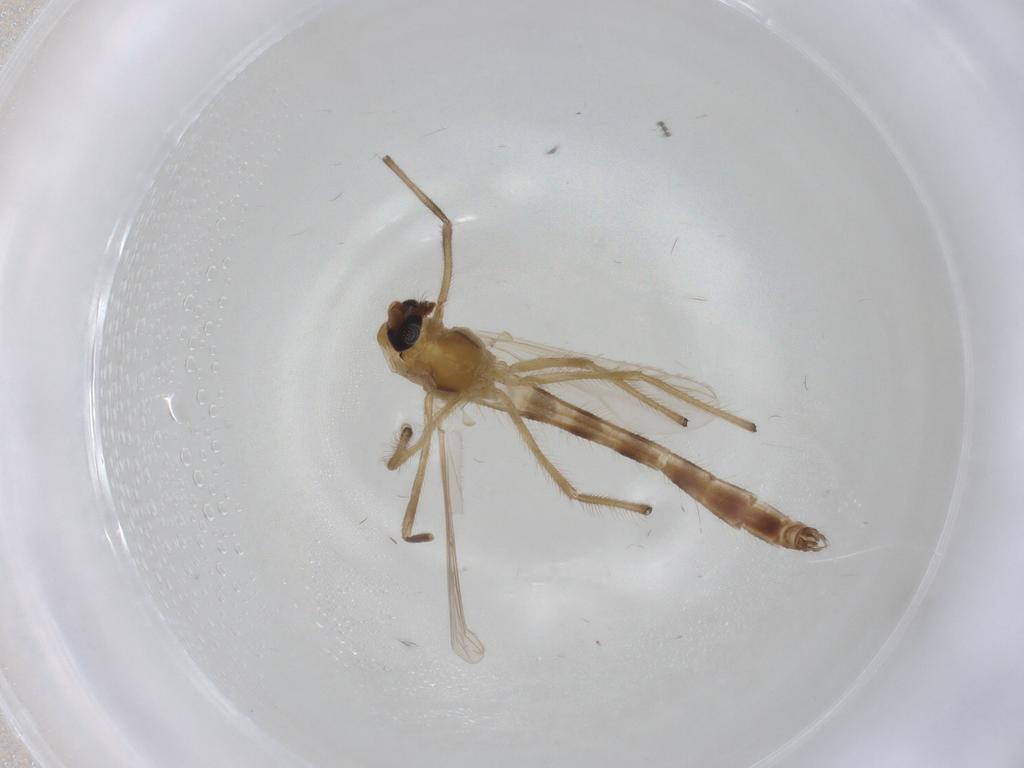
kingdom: Animalia
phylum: Arthropoda
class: Insecta
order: Diptera
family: Chironomidae
